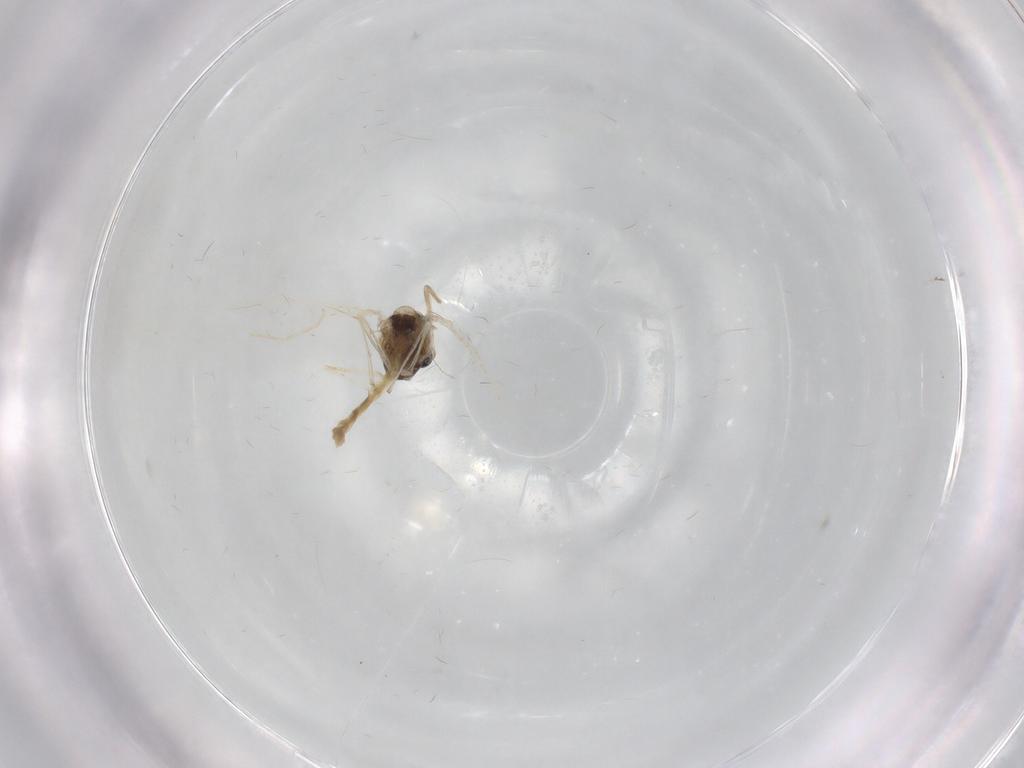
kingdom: Animalia
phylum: Arthropoda
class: Insecta
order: Diptera
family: Chironomidae
